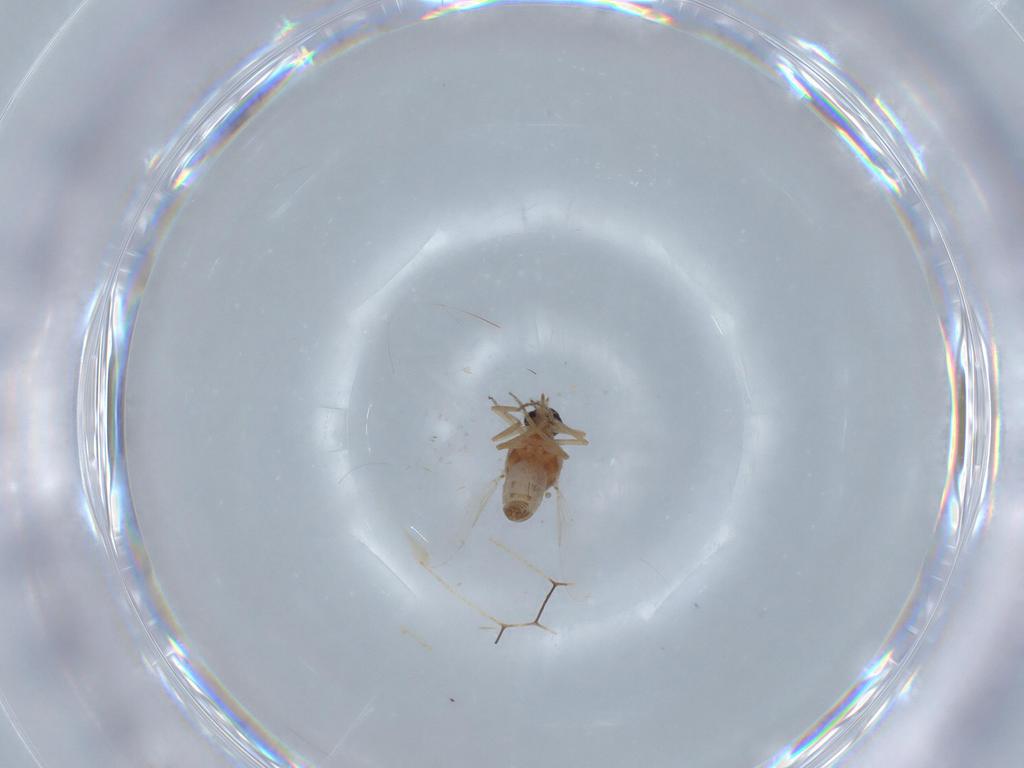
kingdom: Animalia
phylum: Arthropoda
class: Insecta
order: Diptera
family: Ceratopogonidae
